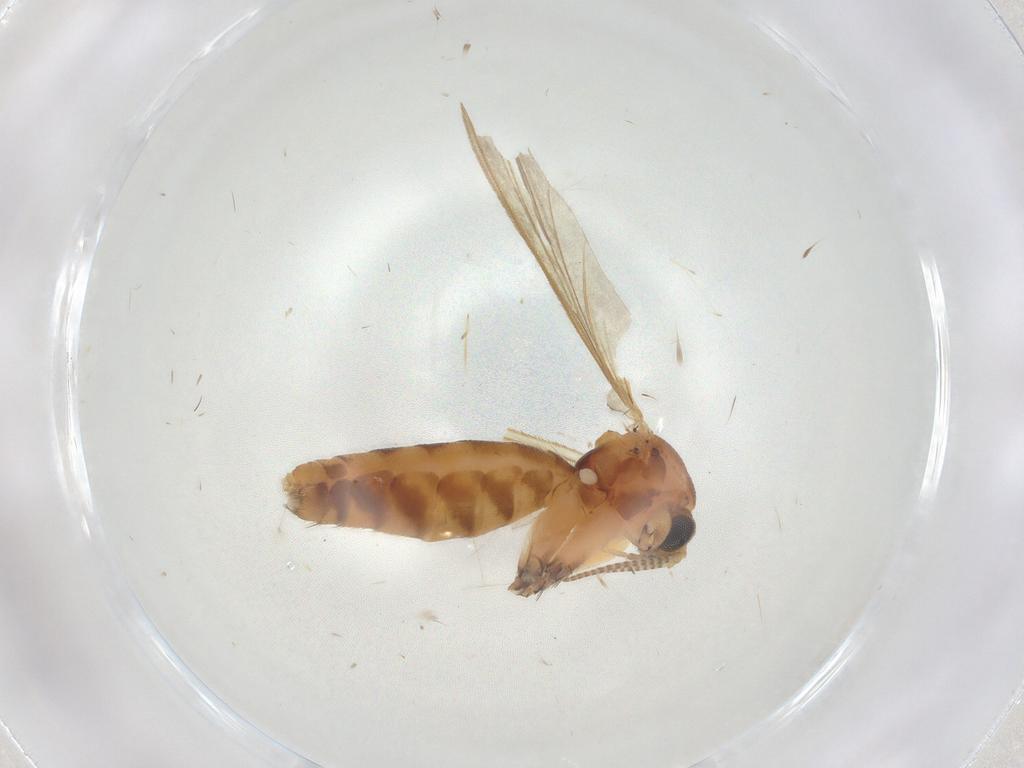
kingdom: Animalia
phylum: Arthropoda
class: Insecta
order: Diptera
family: Mycetophilidae
